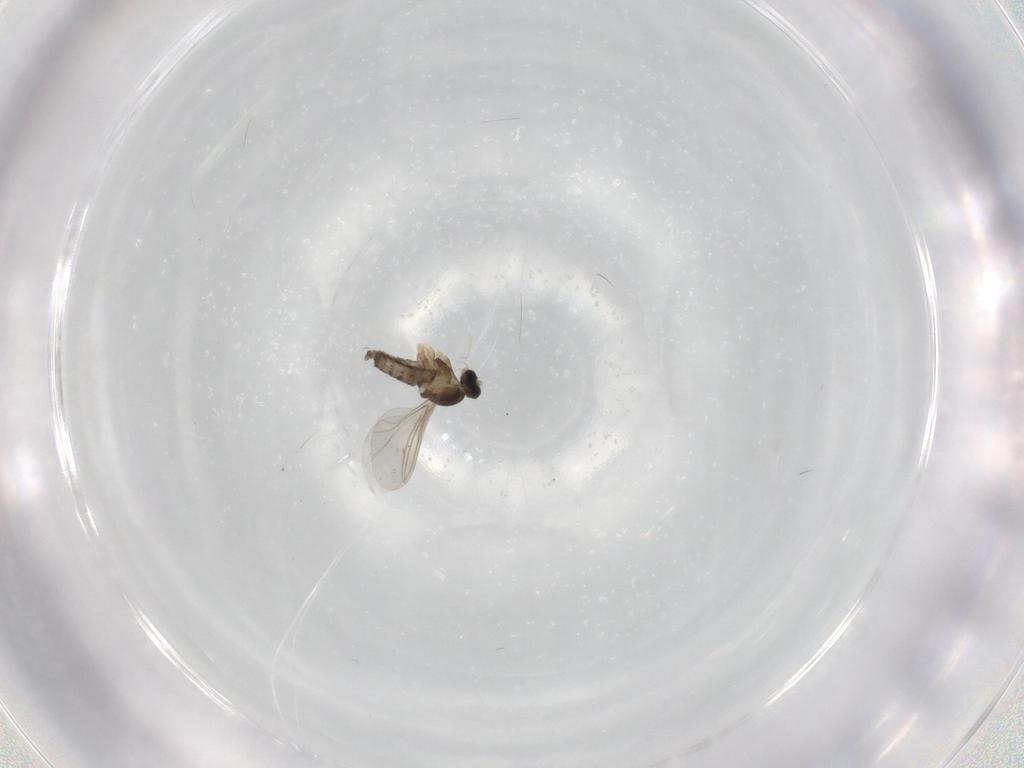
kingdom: Animalia
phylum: Arthropoda
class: Insecta
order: Diptera
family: Cecidomyiidae
